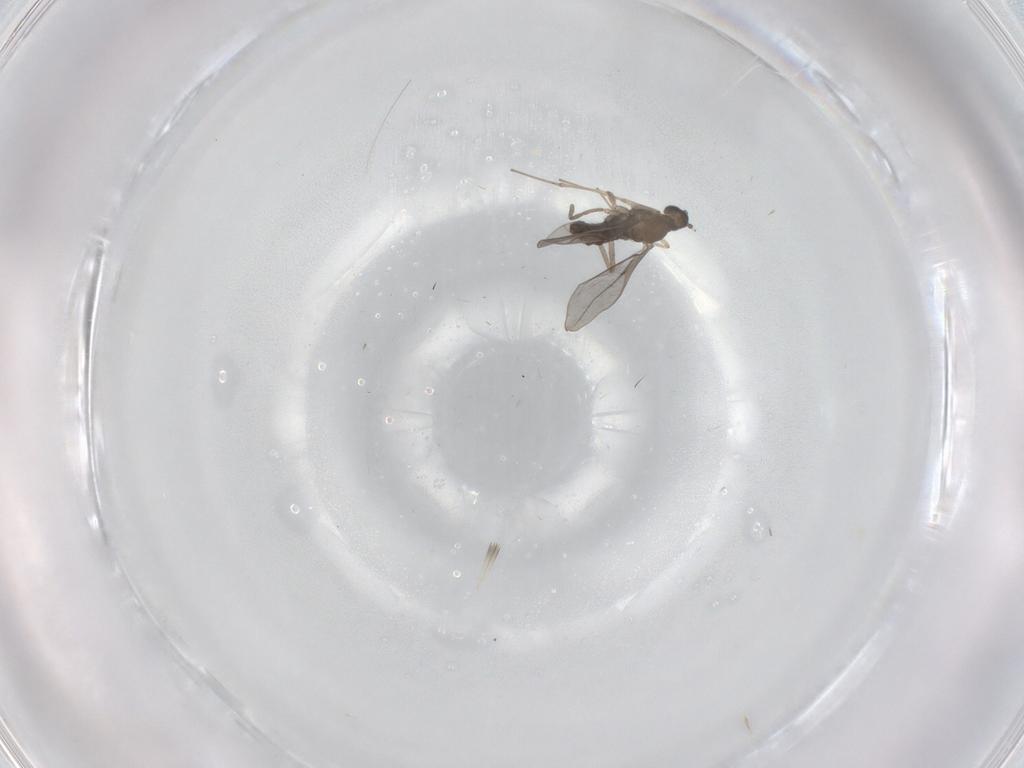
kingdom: Animalia
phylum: Arthropoda
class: Insecta
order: Diptera
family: Cecidomyiidae
